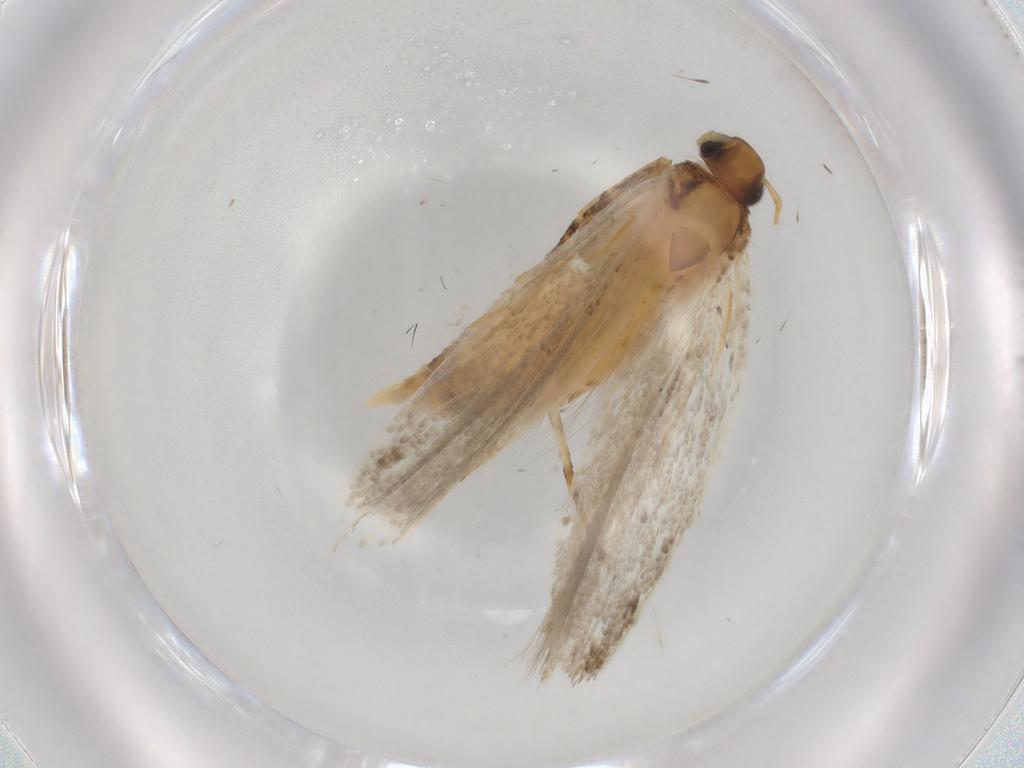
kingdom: Animalia
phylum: Arthropoda
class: Insecta
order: Lepidoptera
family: Gelechiidae
